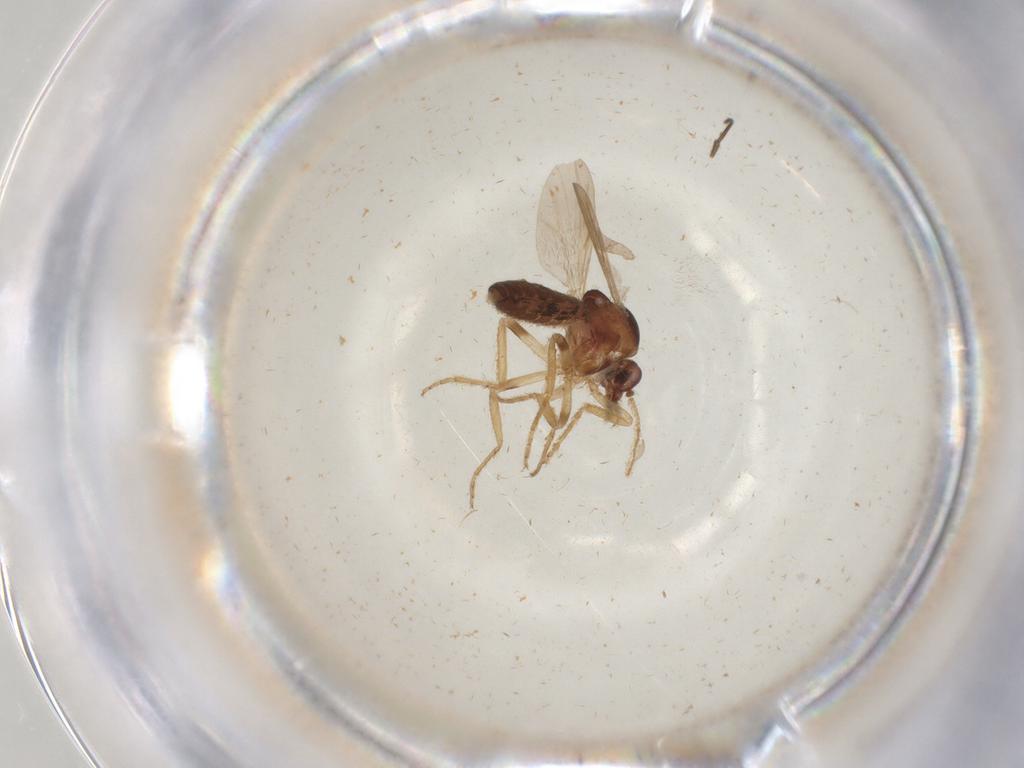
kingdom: Animalia
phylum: Arthropoda
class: Insecta
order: Diptera
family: Ceratopogonidae
